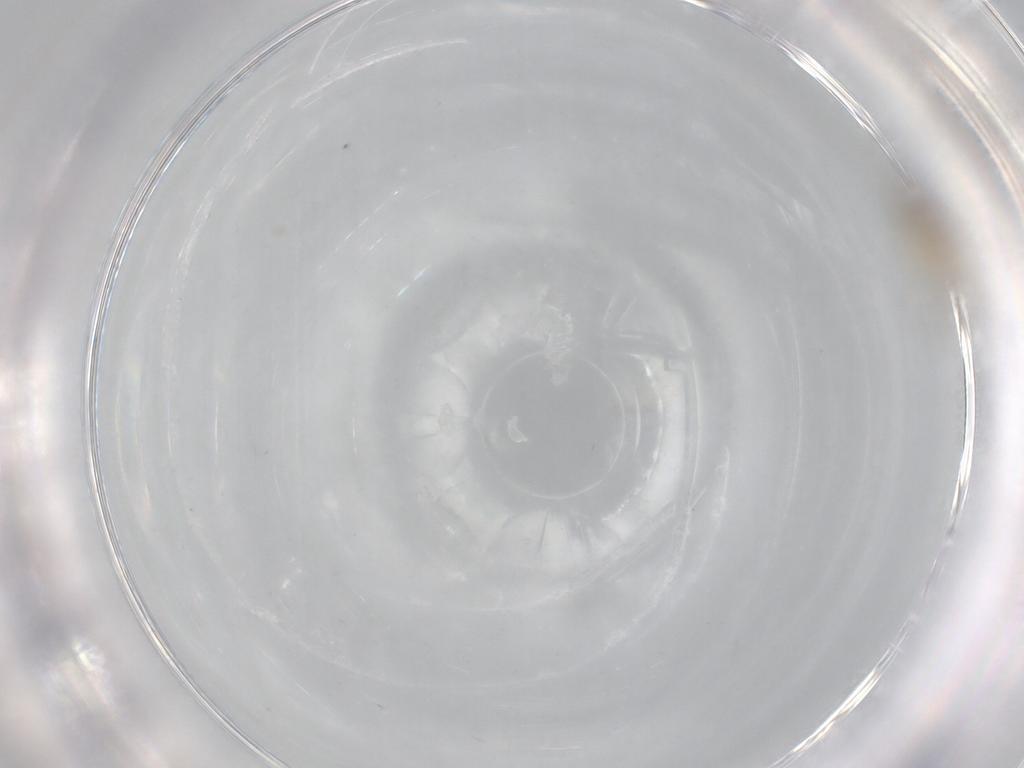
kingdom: Animalia
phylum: Arthropoda
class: Insecta
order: Diptera
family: Cecidomyiidae
